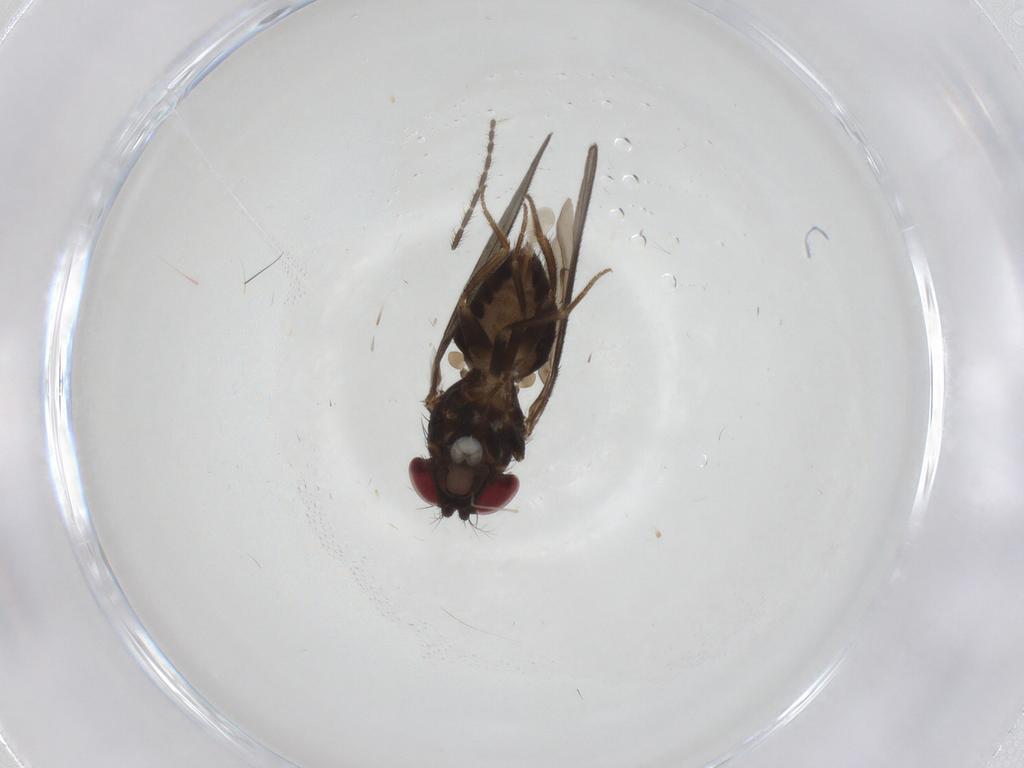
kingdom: Animalia
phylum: Arthropoda
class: Insecta
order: Diptera
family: Drosophilidae
